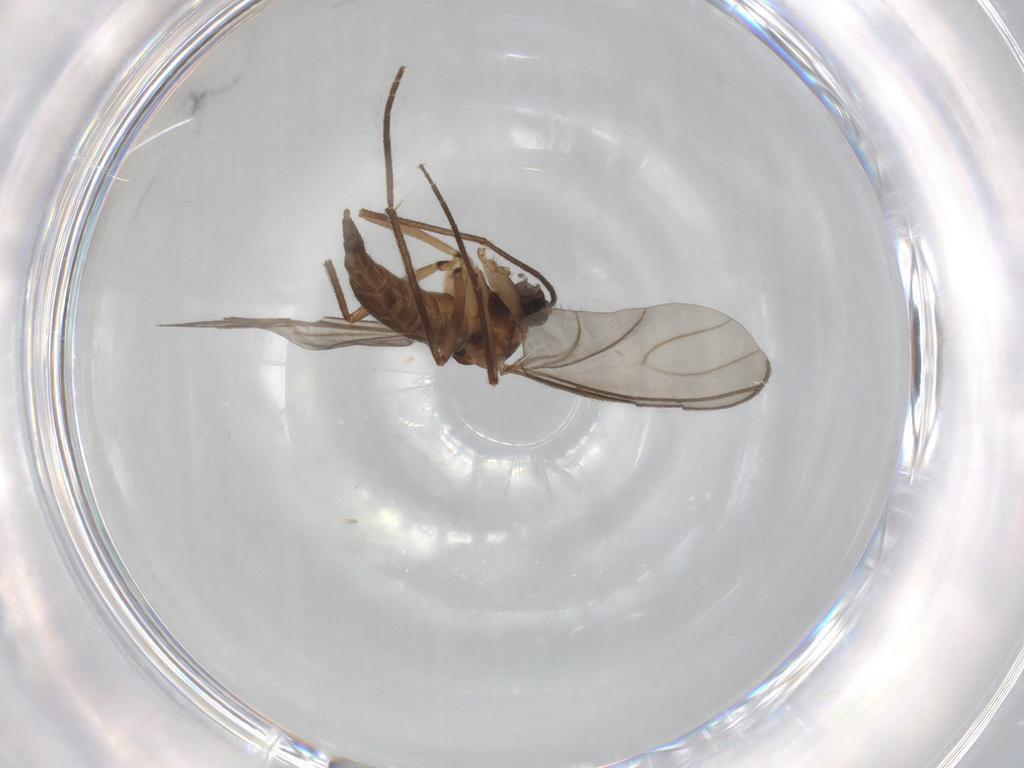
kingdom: Animalia
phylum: Arthropoda
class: Insecta
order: Diptera
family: Sciaridae
